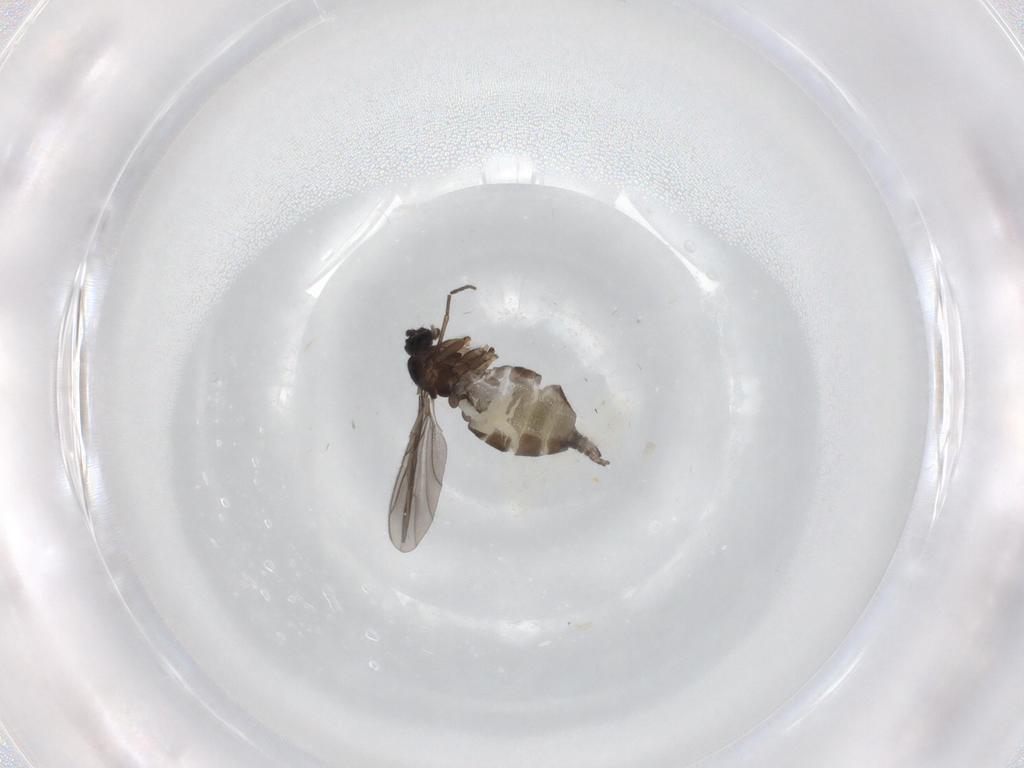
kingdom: Animalia
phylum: Arthropoda
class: Insecta
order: Diptera
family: Sciaridae
